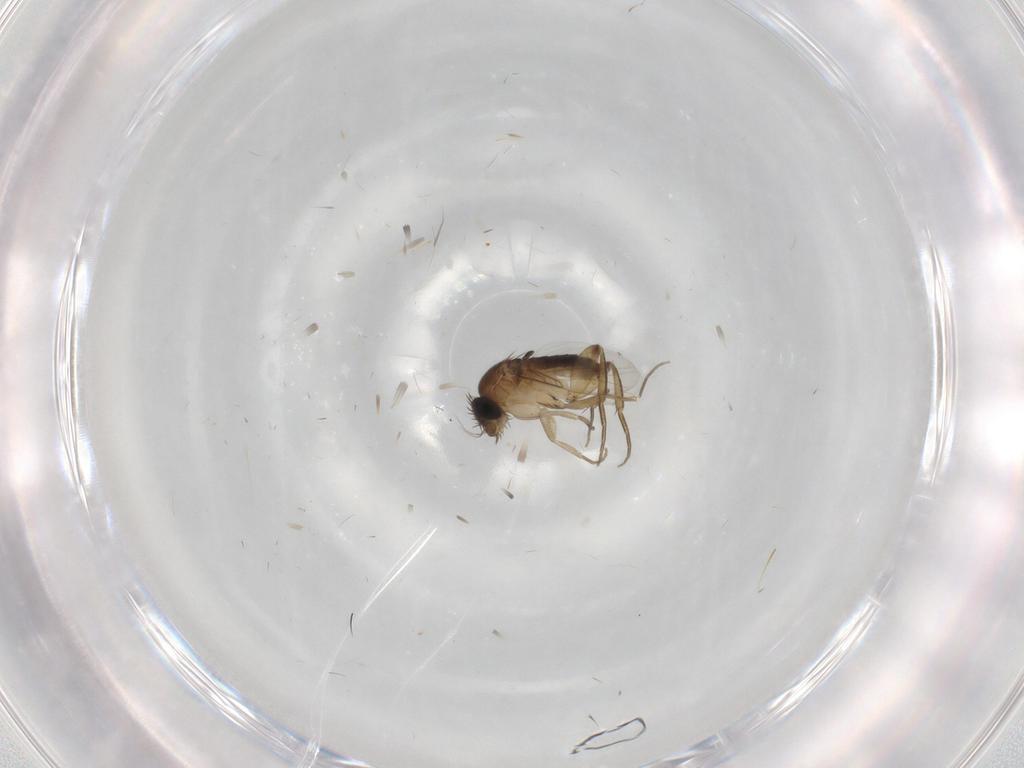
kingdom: Animalia
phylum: Arthropoda
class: Insecta
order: Diptera
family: Phoridae
